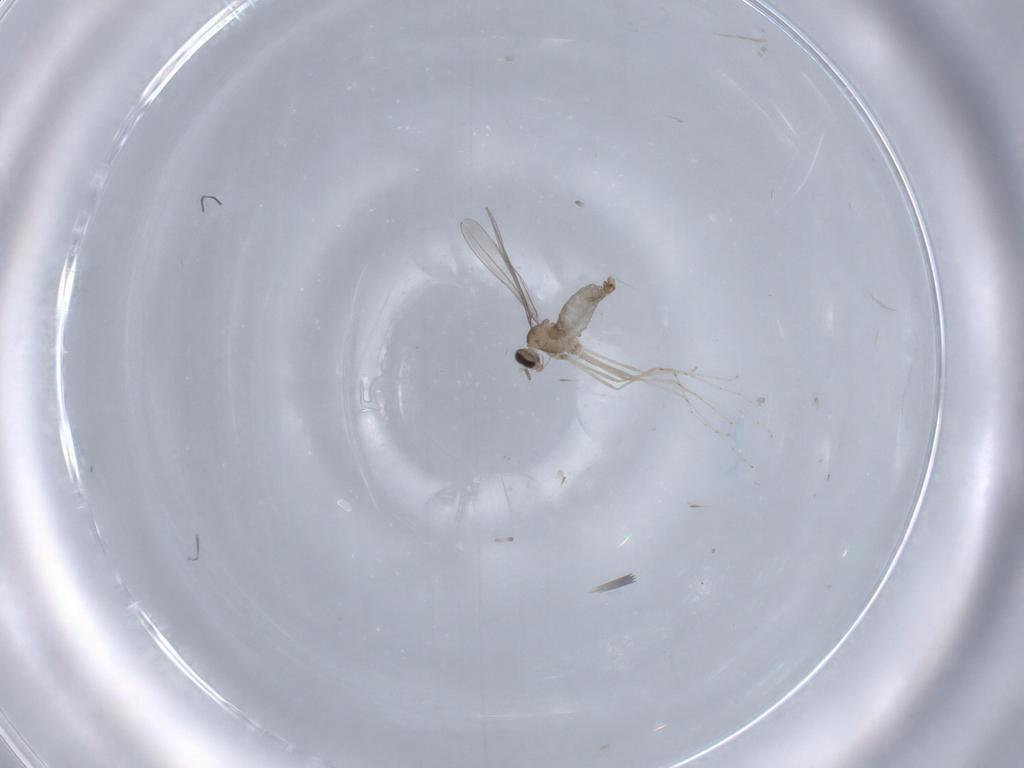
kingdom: Animalia
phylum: Arthropoda
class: Insecta
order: Diptera
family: Cecidomyiidae
